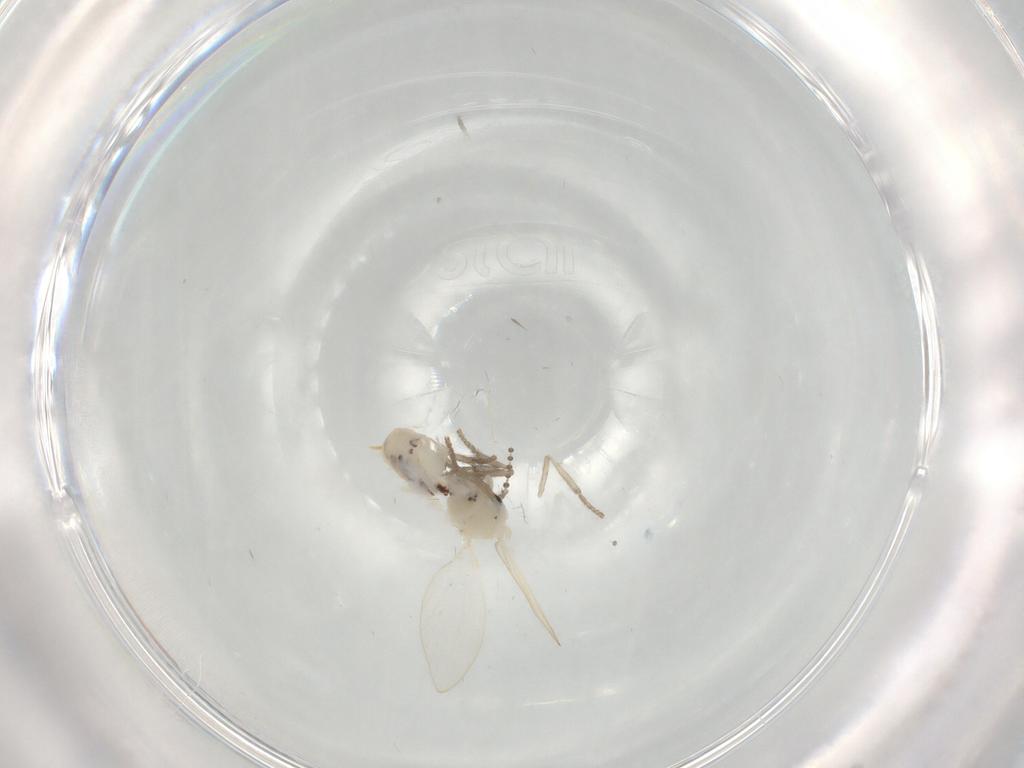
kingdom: Animalia
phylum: Arthropoda
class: Insecta
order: Diptera
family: Psychodidae
